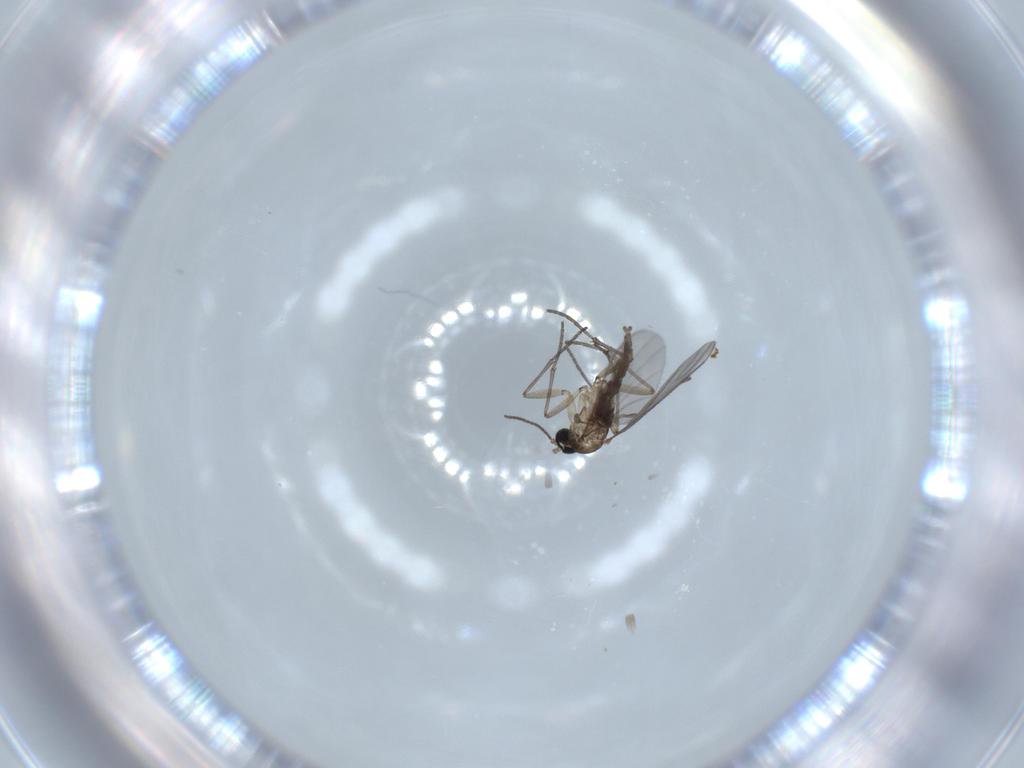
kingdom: Animalia
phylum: Arthropoda
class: Insecta
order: Diptera
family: Sciaridae
